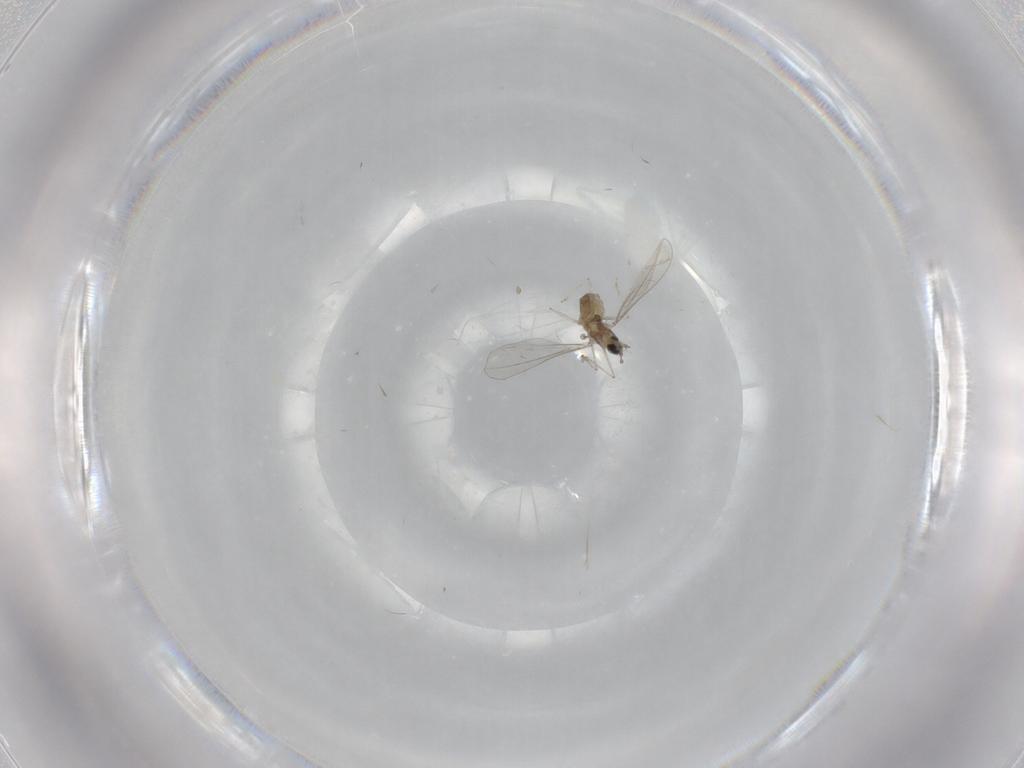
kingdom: Animalia
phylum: Arthropoda
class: Insecta
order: Diptera
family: Cecidomyiidae
